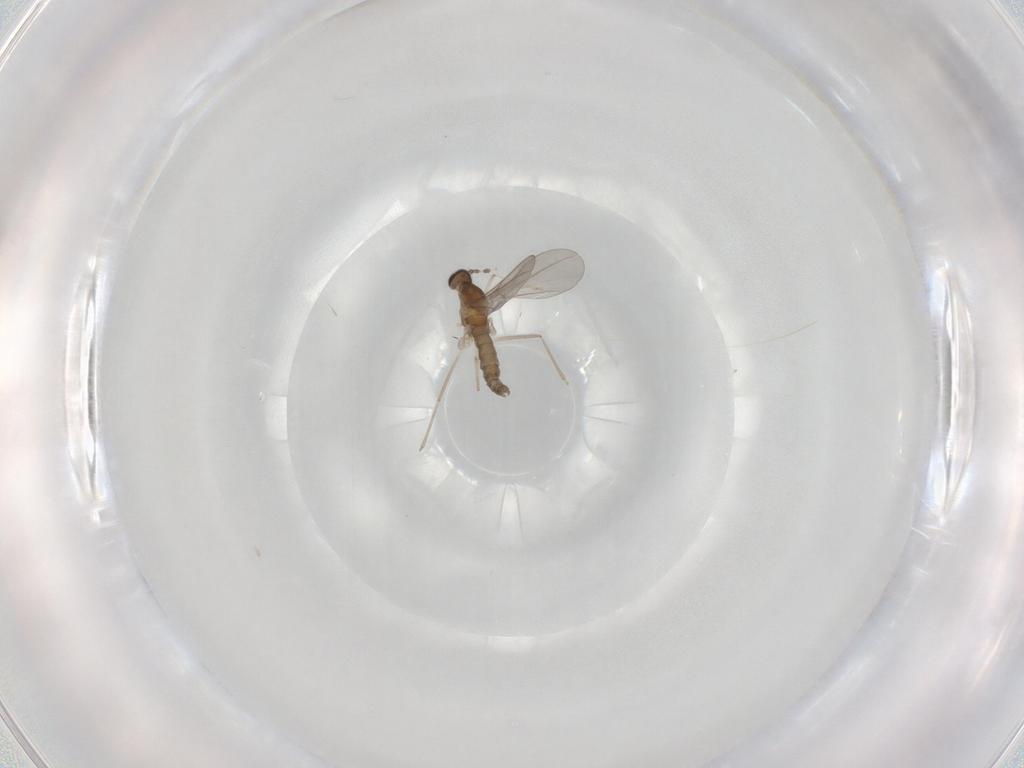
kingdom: Animalia
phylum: Arthropoda
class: Insecta
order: Diptera
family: Cecidomyiidae
